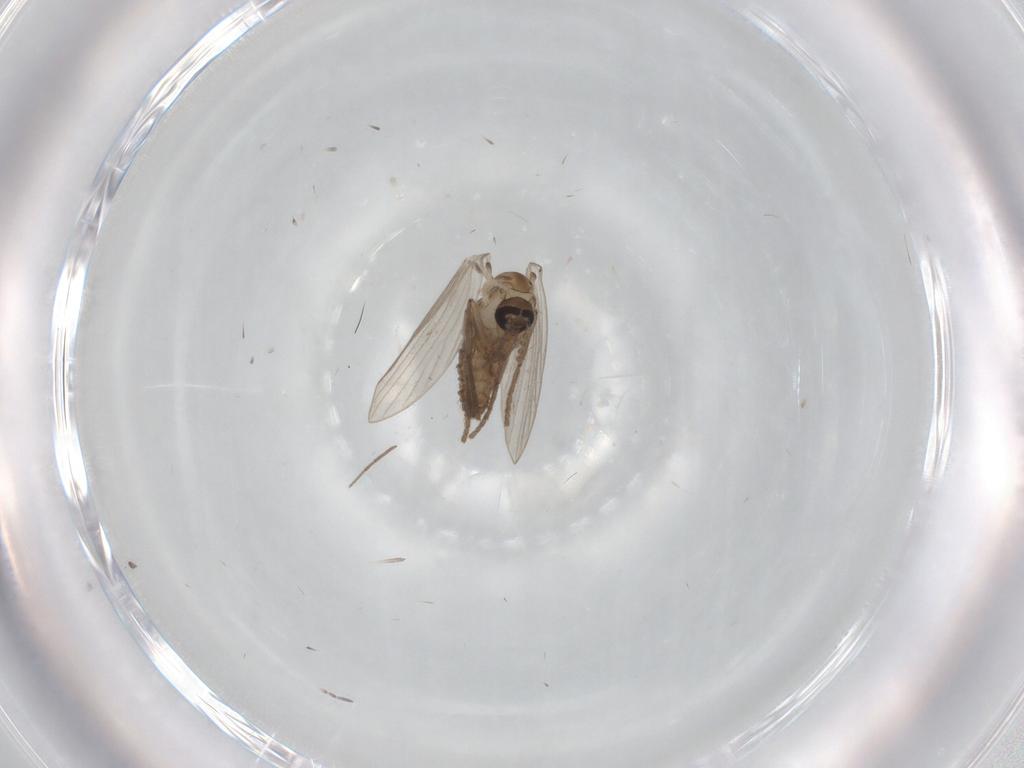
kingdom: Animalia
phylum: Arthropoda
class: Insecta
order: Diptera
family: Drosophilidae
